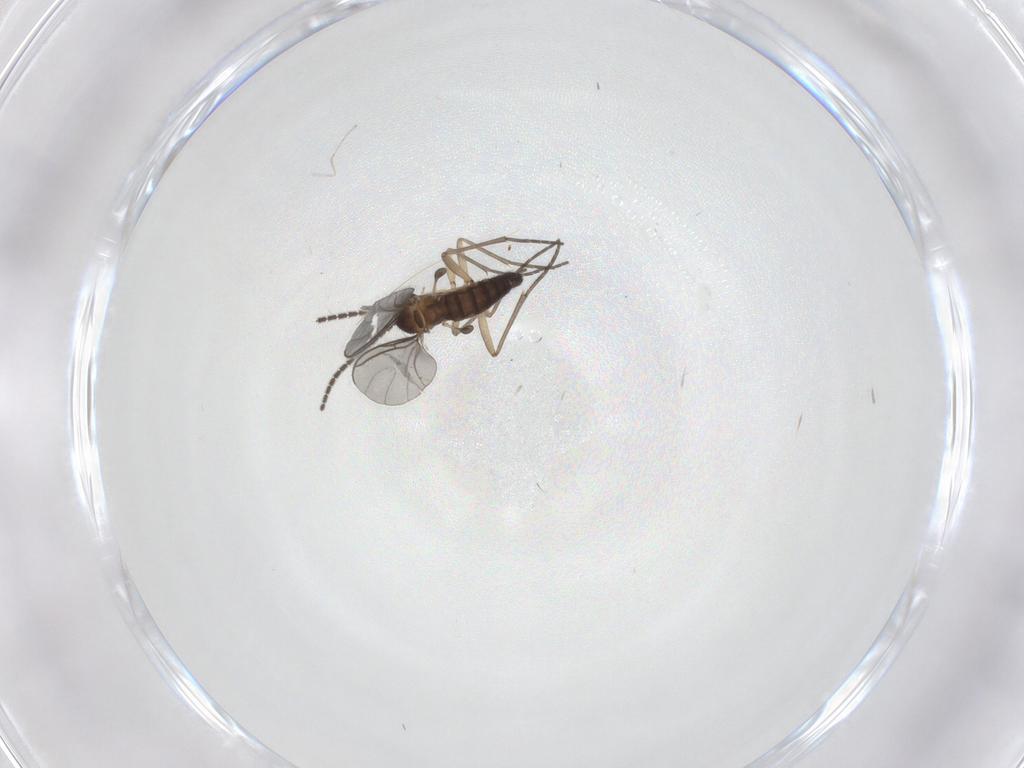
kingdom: Animalia
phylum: Arthropoda
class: Insecta
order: Diptera
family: Sciaridae
